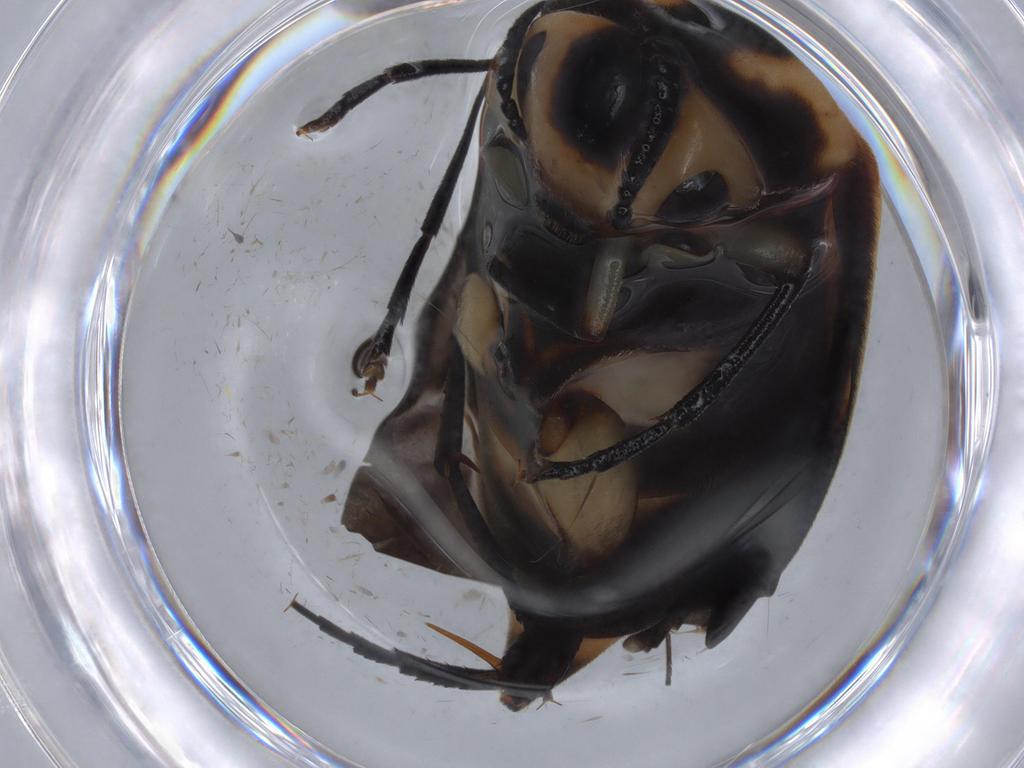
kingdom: Animalia
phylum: Arthropoda
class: Insecta
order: Coleoptera
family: Mordellidae
